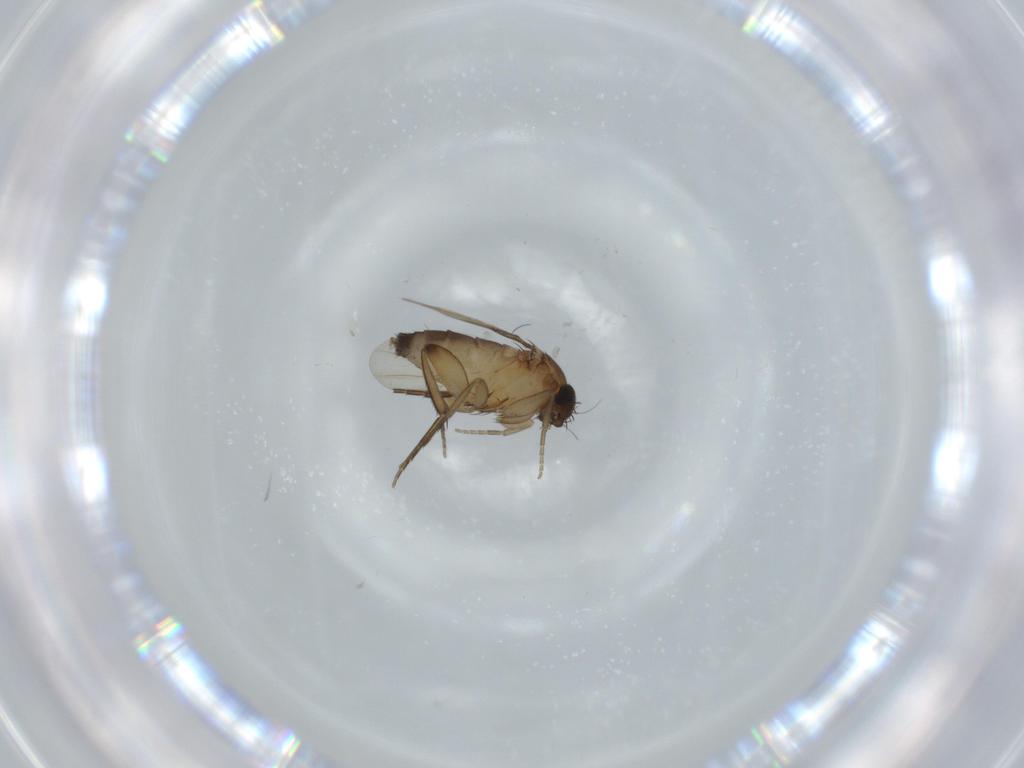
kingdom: Animalia
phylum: Arthropoda
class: Insecta
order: Diptera
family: Phoridae
